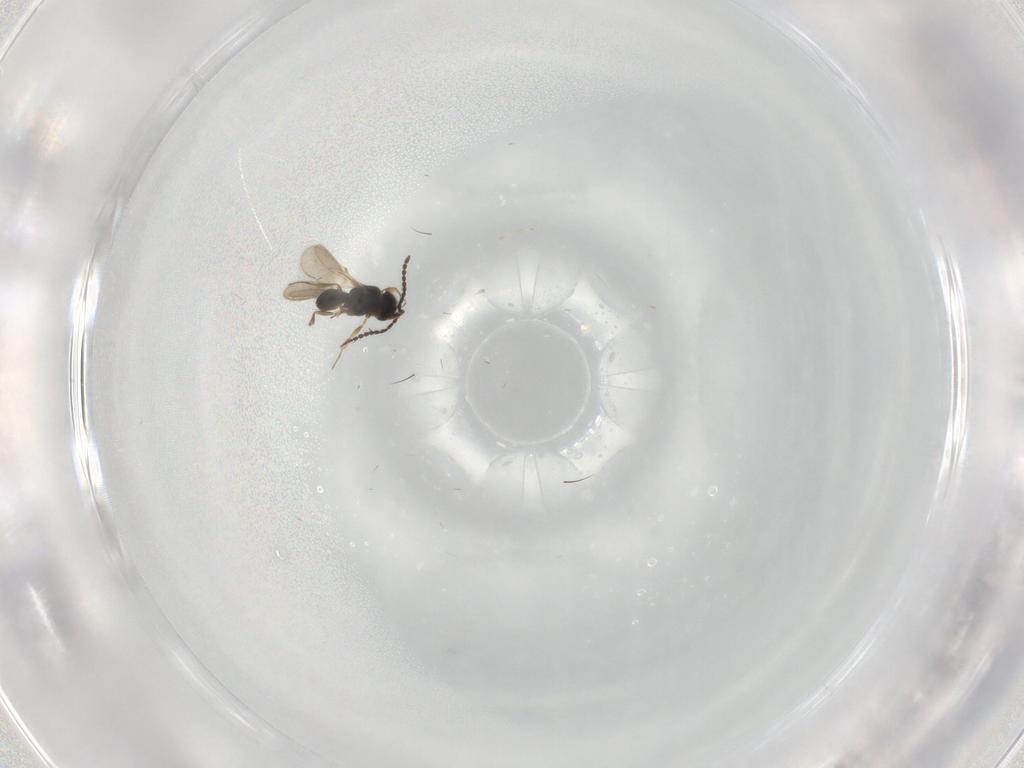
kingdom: Animalia
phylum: Arthropoda
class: Insecta
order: Hymenoptera
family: Scelionidae
